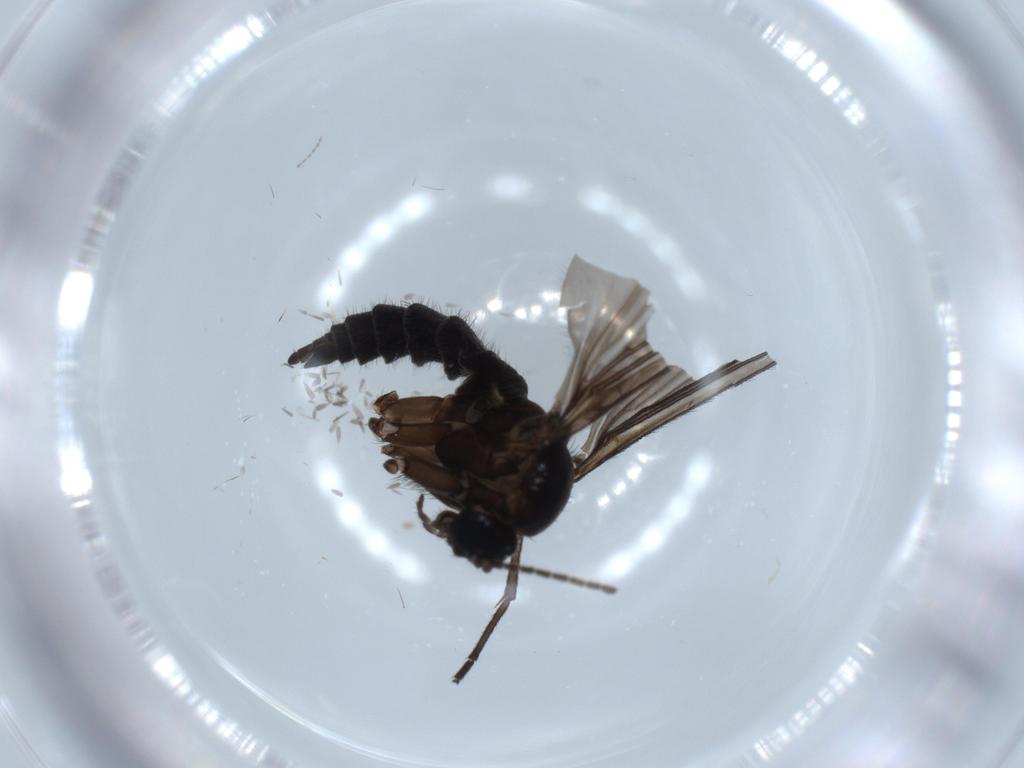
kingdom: Animalia
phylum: Arthropoda
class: Insecta
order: Diptera
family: Sciaridae
